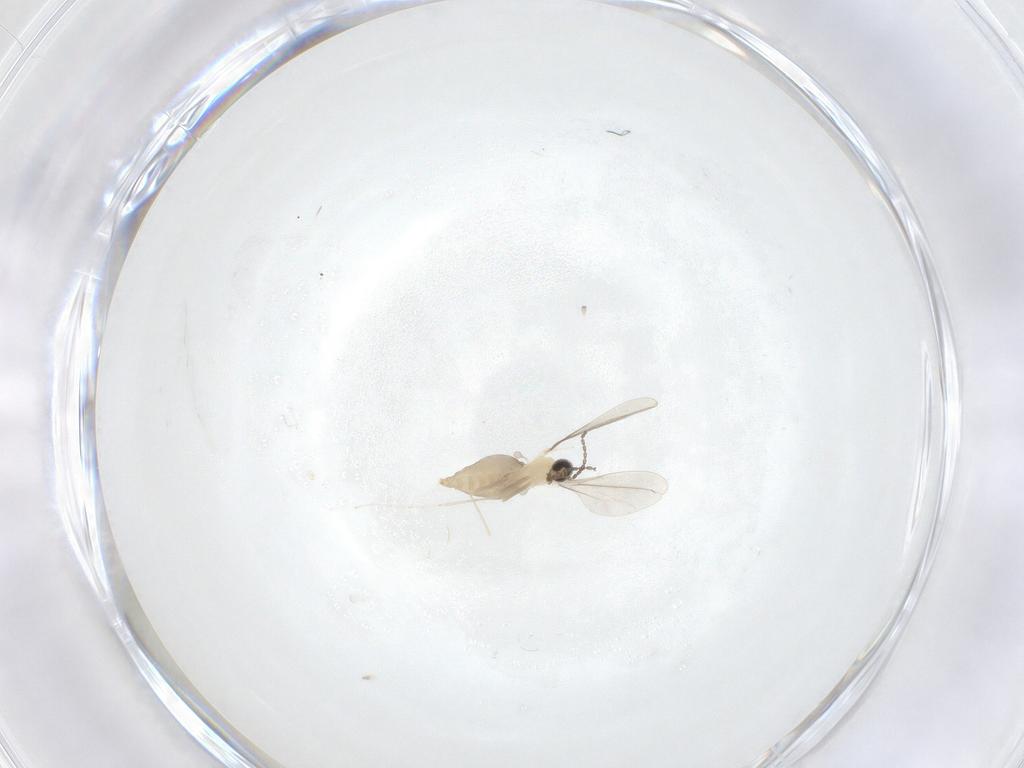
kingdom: Animalia
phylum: Arthropoda
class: Insecta
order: Diptera
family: Cecidomyiidae
